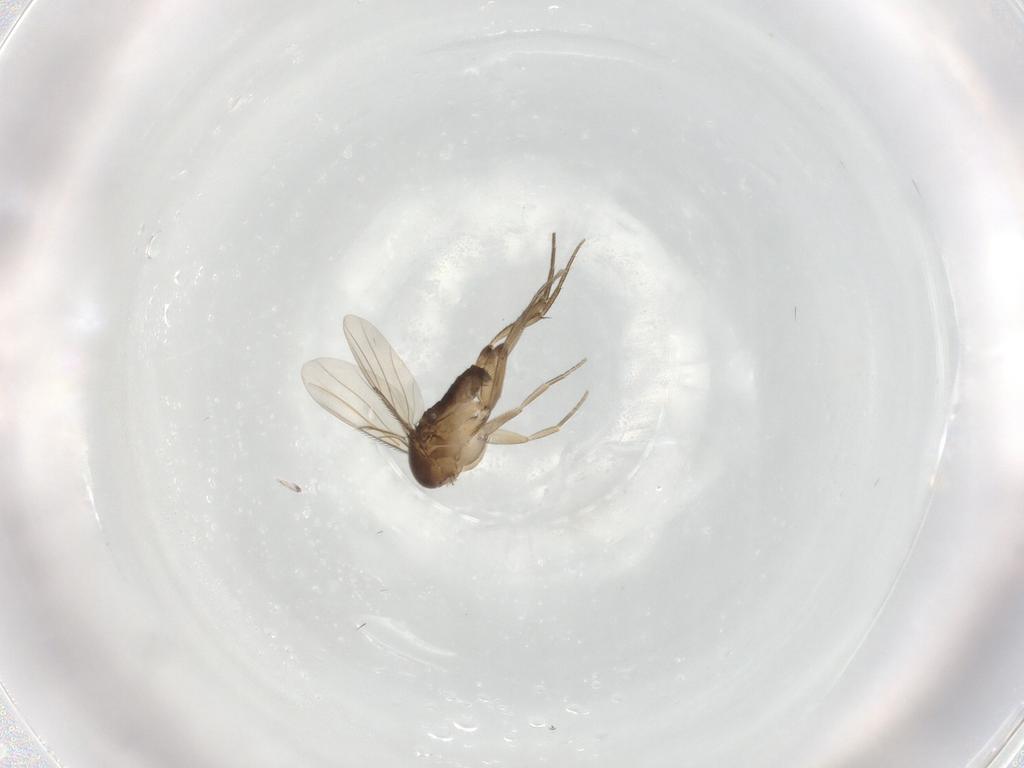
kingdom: Animalia
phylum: Arthropoda
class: Insecta
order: Diptera
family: Phoridae
